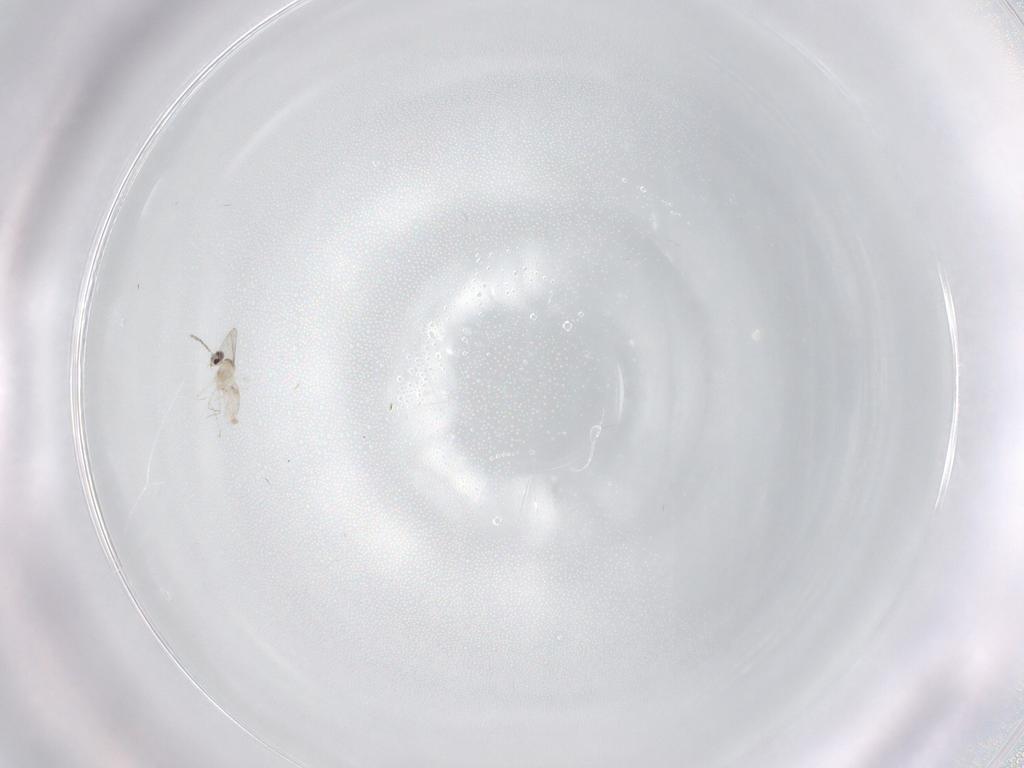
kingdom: Animalia
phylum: Arthropoda
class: Insecta
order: Diptera
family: Cecidomyiidae
